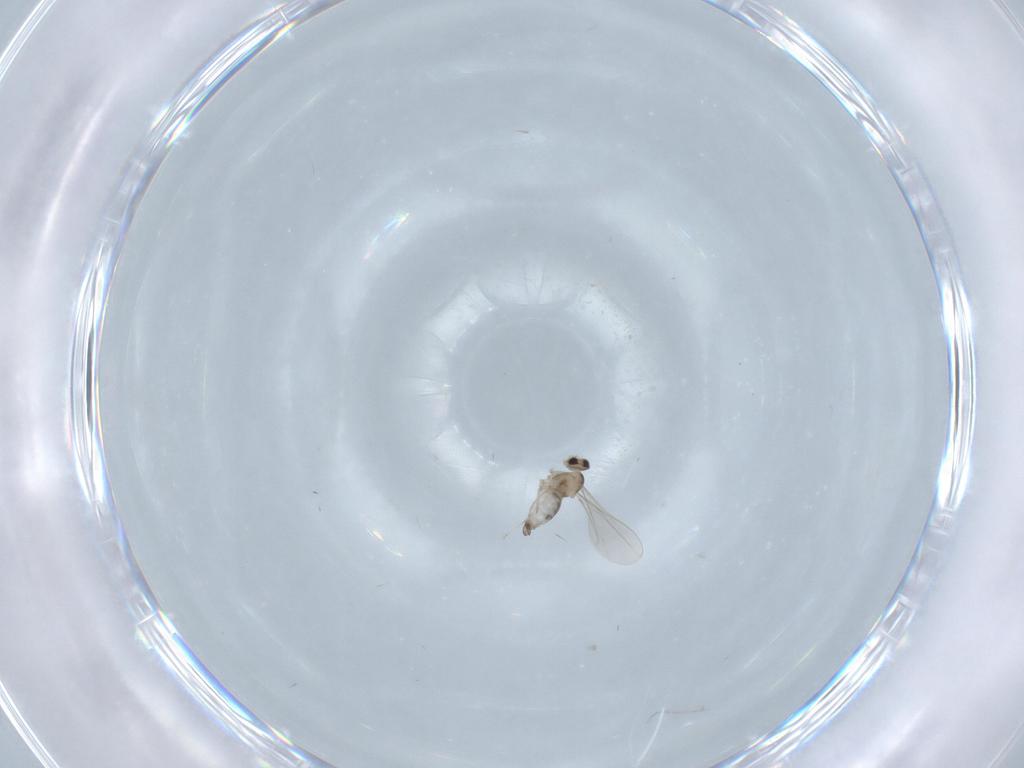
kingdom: Animalia
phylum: Arthropoda
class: Insecta
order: Diptera
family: Cecidomyiidae
